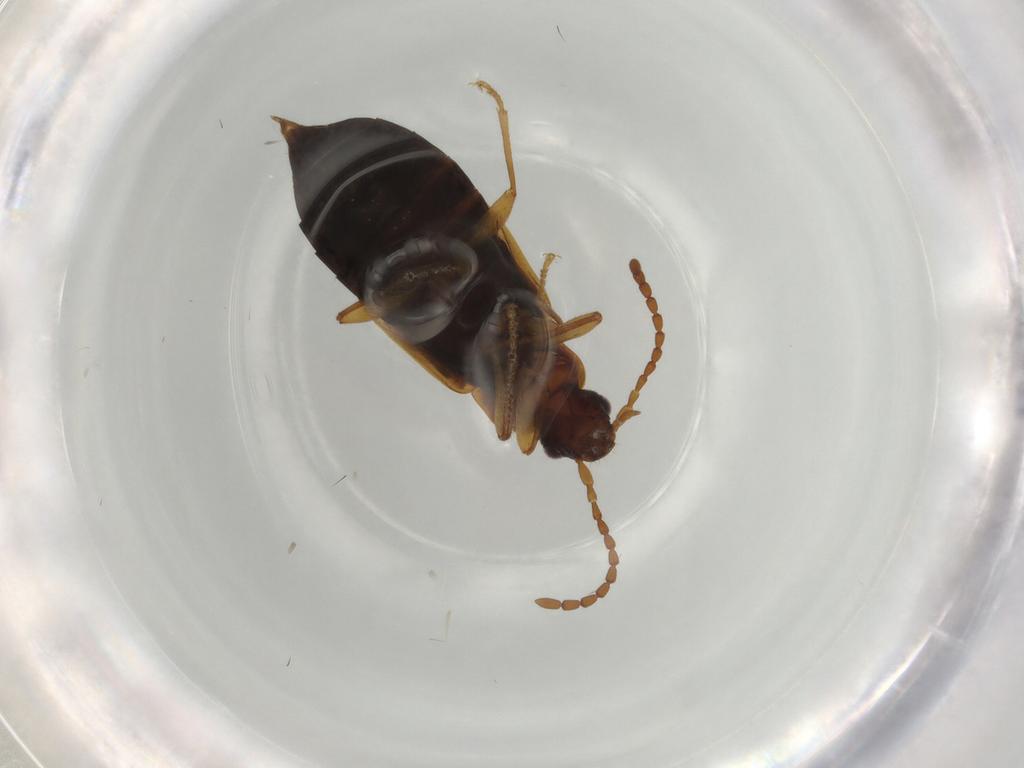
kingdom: Animalia
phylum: Arthropoda
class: Insecta
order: Coleoptera
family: Staphylinidae
